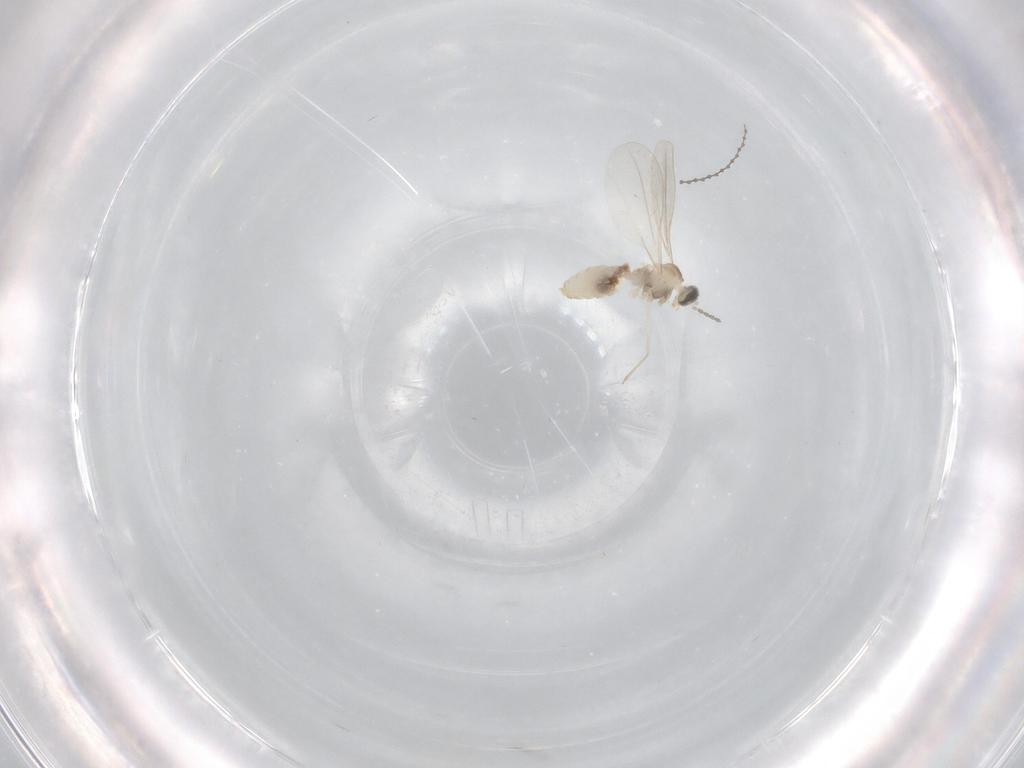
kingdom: Animalia
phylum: Arthropoda
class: Insecta
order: Diptera
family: Cecidomyiidae
